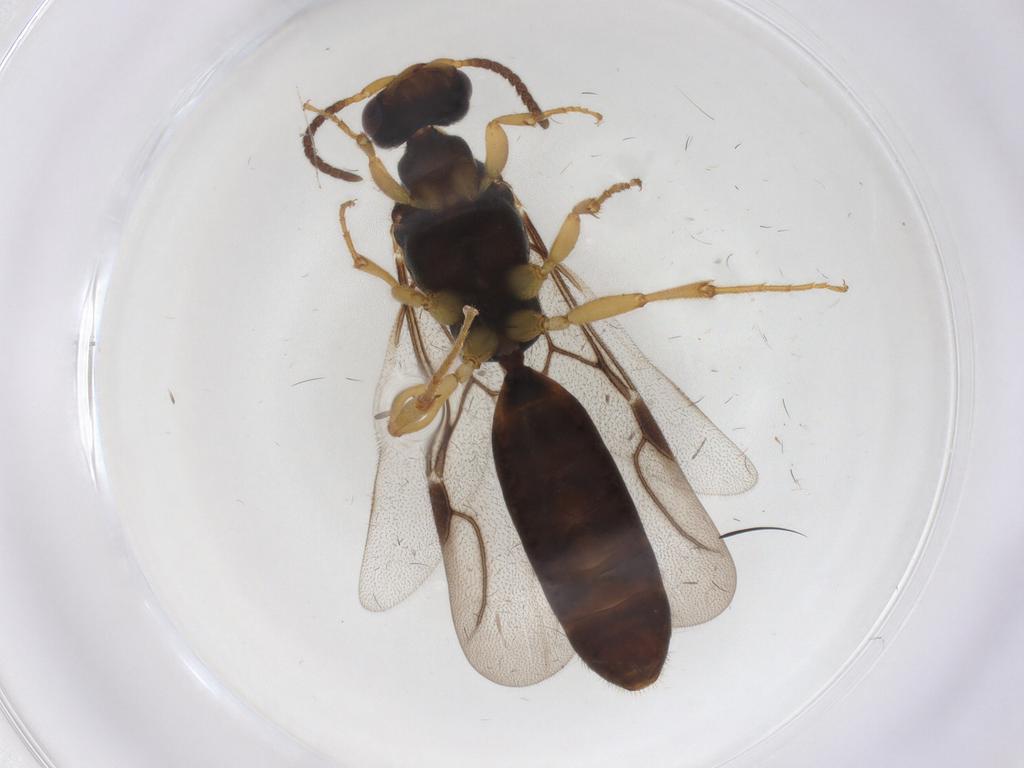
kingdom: Animalia
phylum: Arthropoda
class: Insecta
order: Hymenoptera
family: Bethylidae
